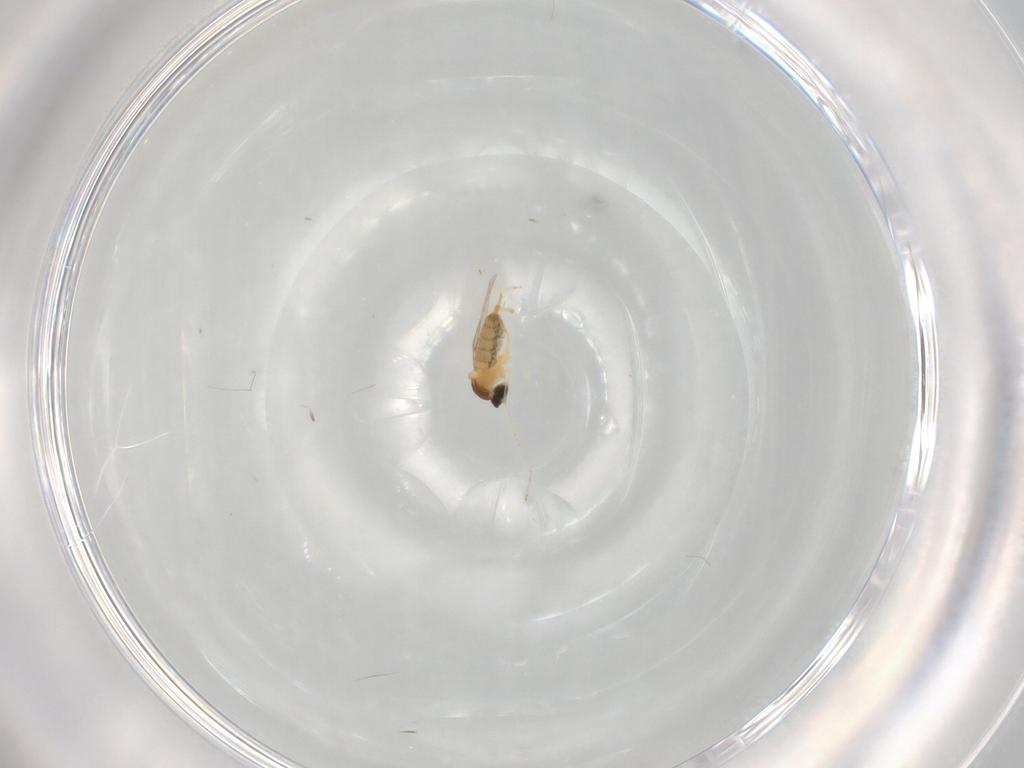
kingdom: Animalia
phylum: Arthropoda
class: Insecta
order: Diptera
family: Cecidomyiidae
